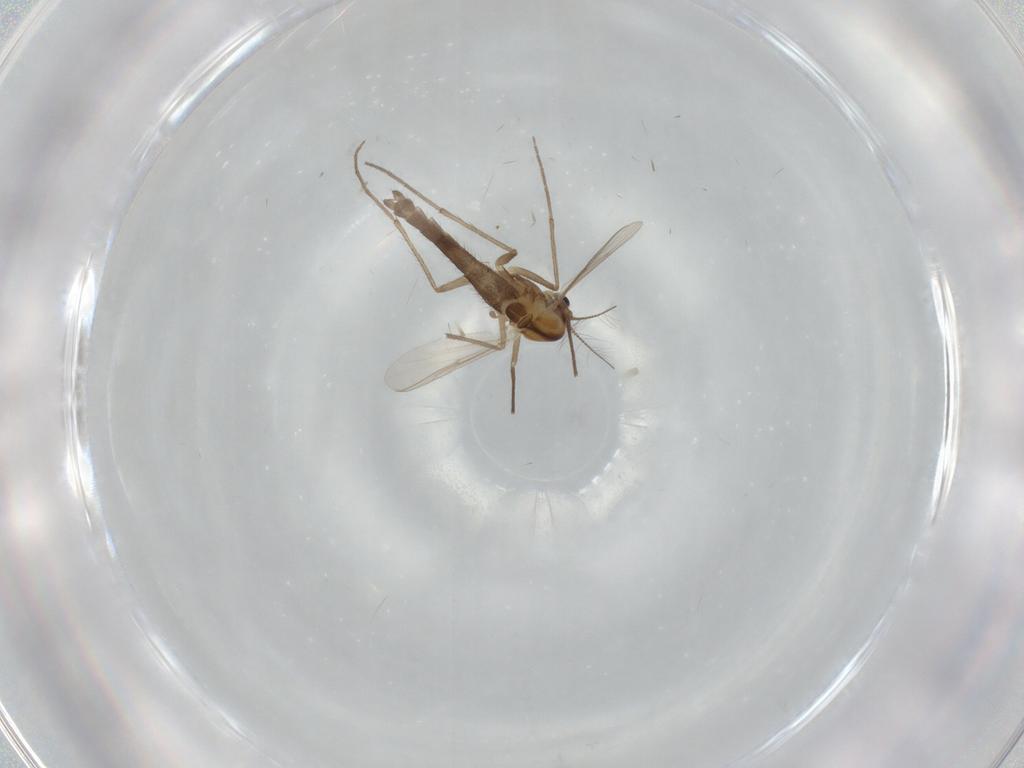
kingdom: Animalia
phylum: Arthropoda
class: Insecta
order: Diptera
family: Chironomidae
